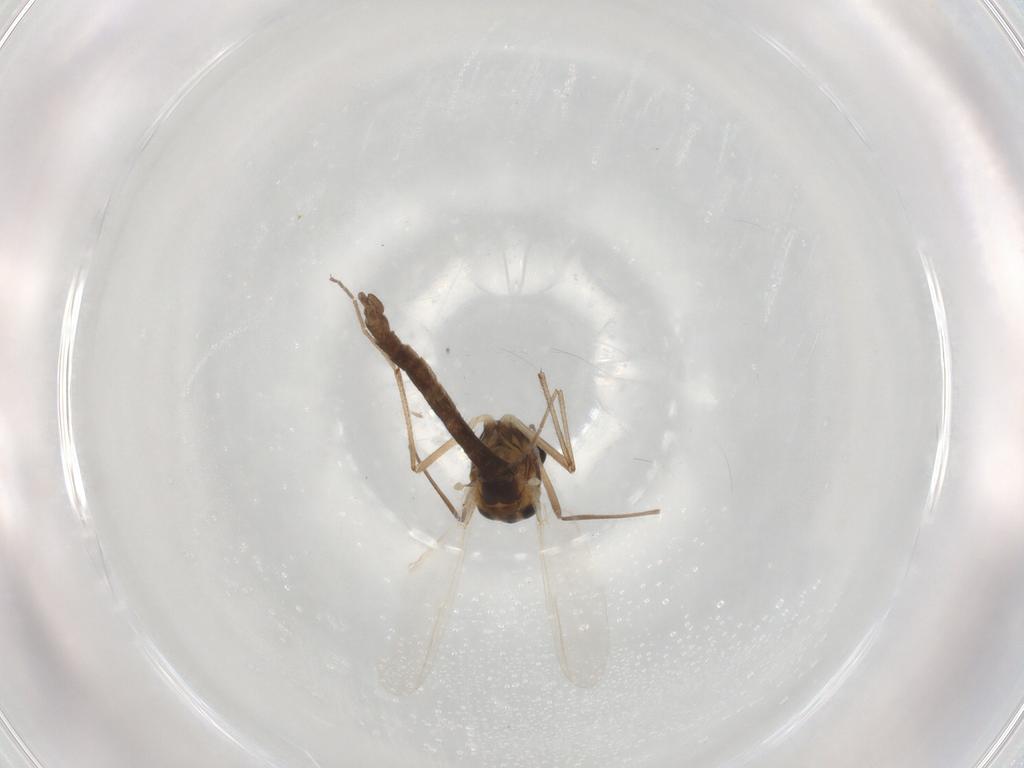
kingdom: Animalia
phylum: Arthropoda
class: Insecta
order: Diptera
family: Chironomidae
